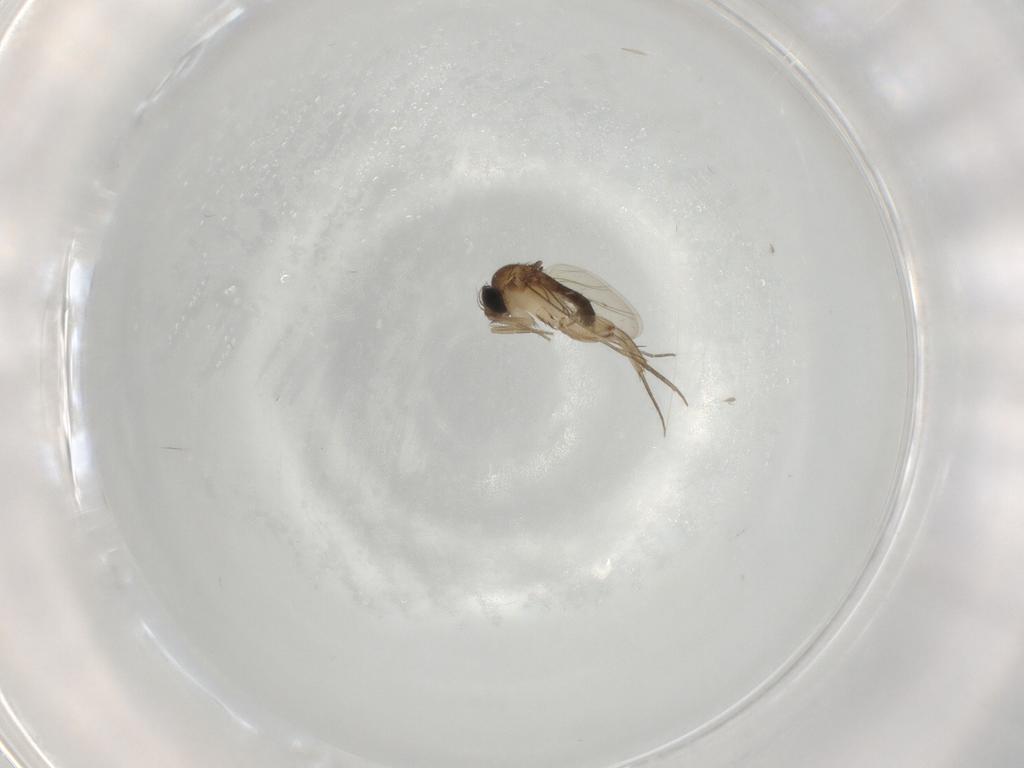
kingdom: Animalia
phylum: Arthropoda
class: Insecta
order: Diptera
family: Phoridae
